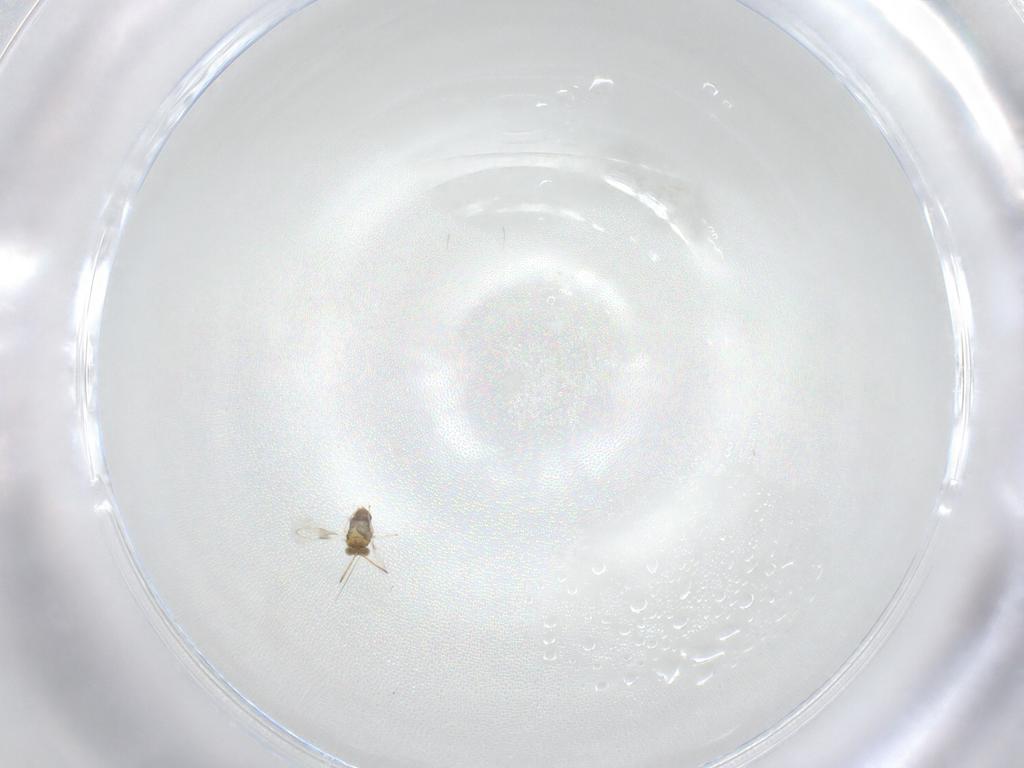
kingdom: Animalia
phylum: Arthropoda
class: Insecta
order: Hymenoptera
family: Aphelinidae
